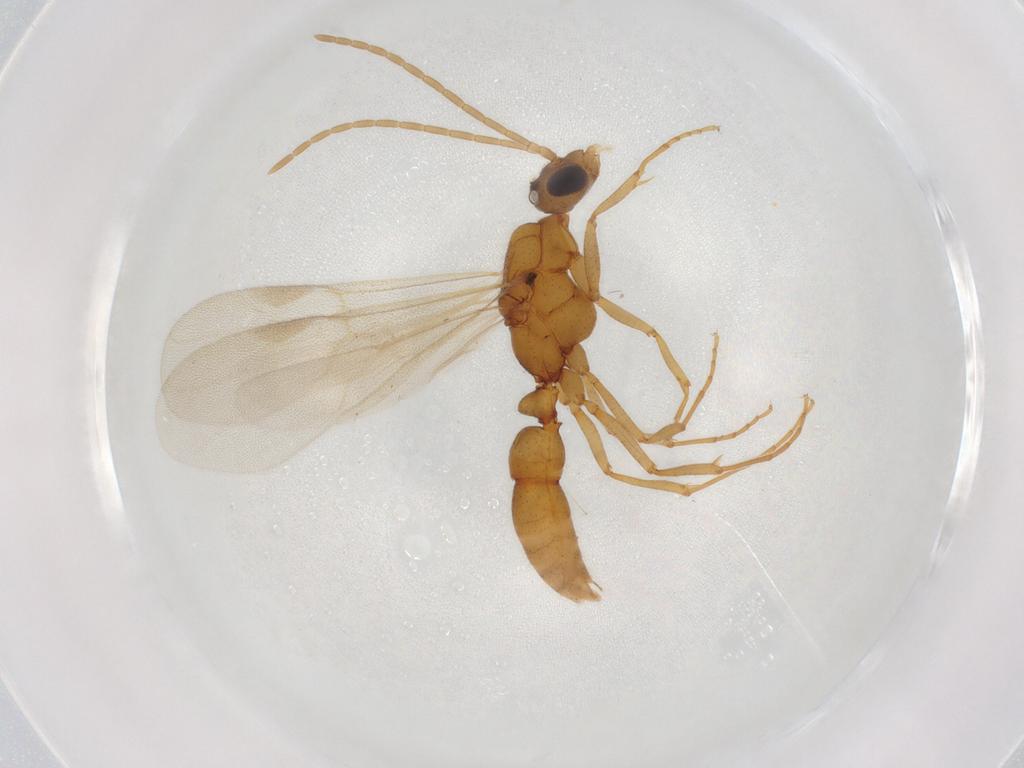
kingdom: Animalia
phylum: Arthropoda
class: Insecta
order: Hymenoptera
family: Formicidae
